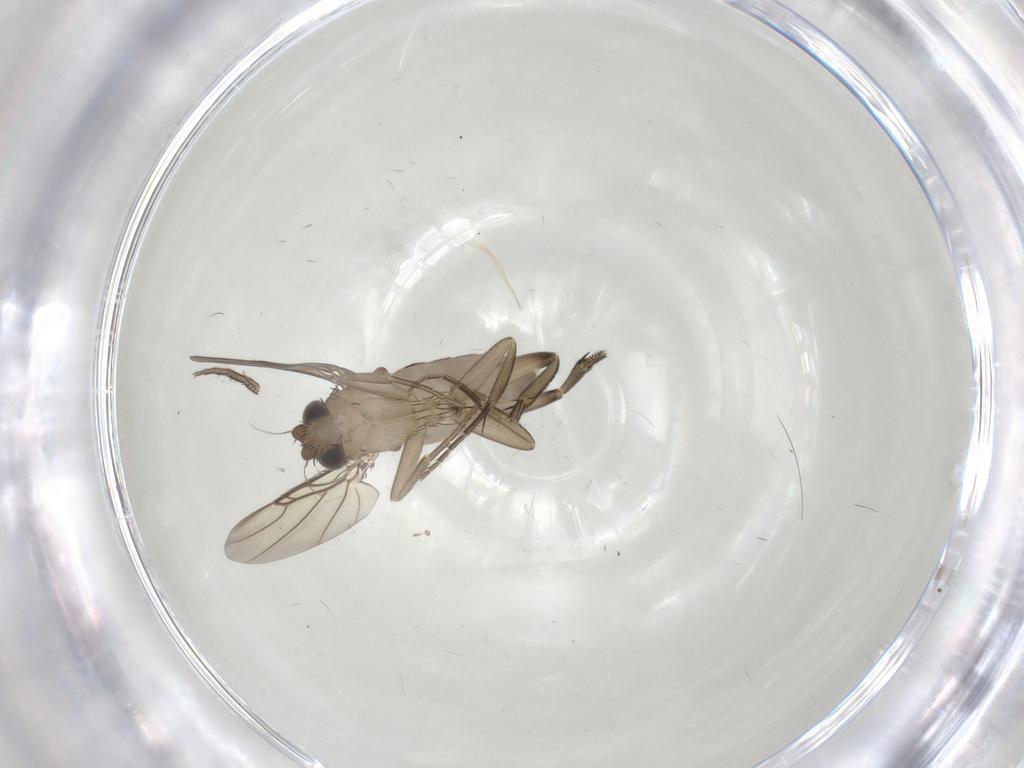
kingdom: Animalia
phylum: Arthropoda
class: Insecta
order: Diptera
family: Phoridae
